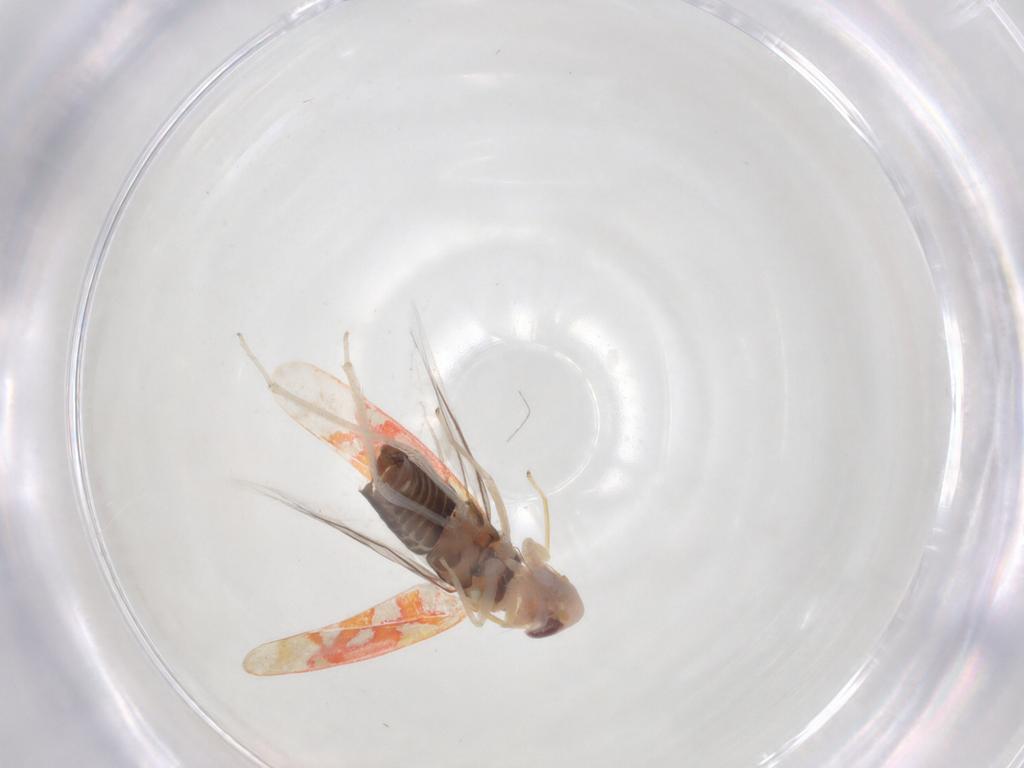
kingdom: Animalia
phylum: Arthropoda
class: Insecta
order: Hemiptera
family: Cicadellidae
